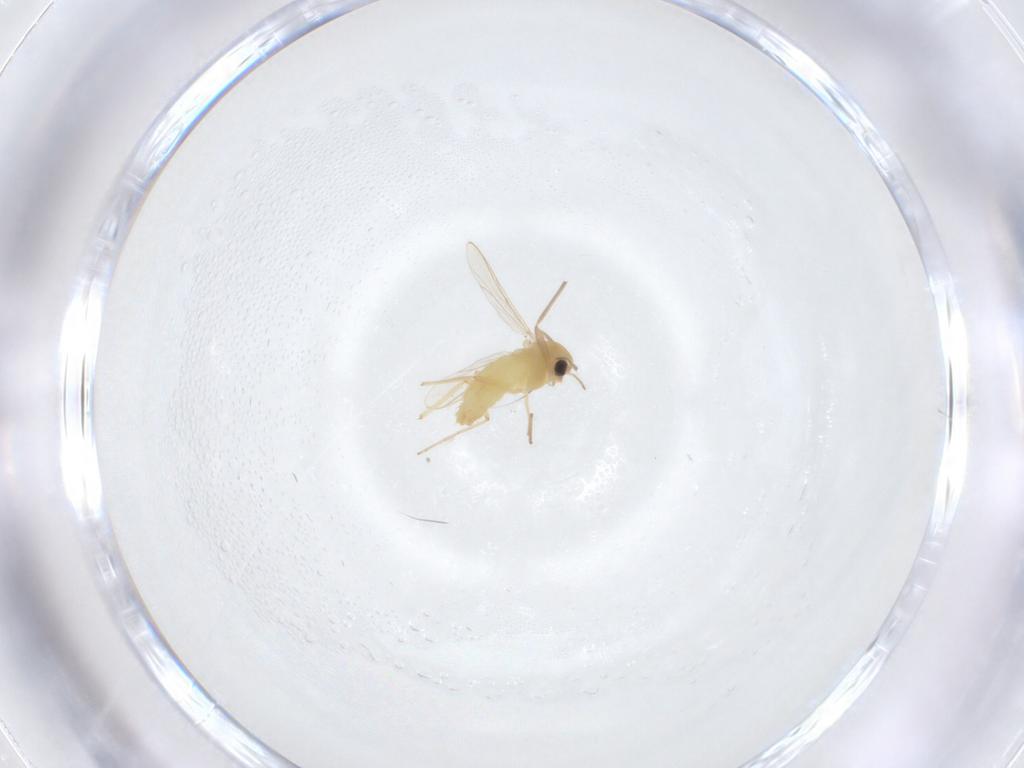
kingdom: Animalia
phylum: Arthropoda
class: Insecta
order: Diptera
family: Chironomidae
